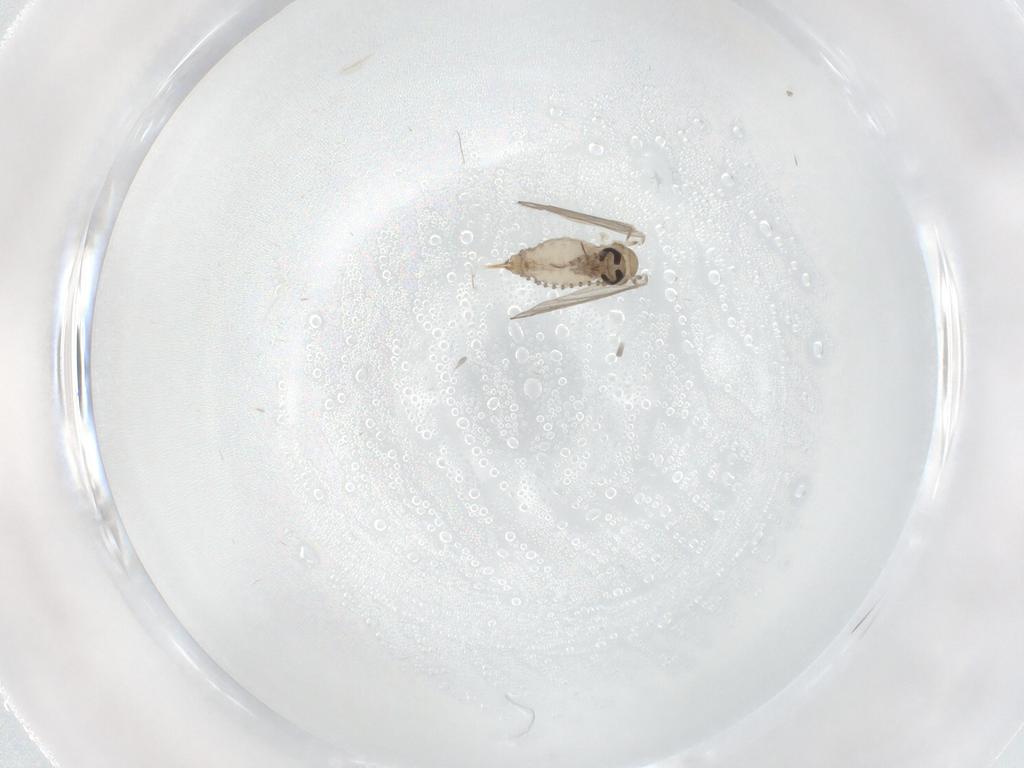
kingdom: Animalia
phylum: Arthropoda
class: Insecta
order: Diptera
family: Psychodidae
